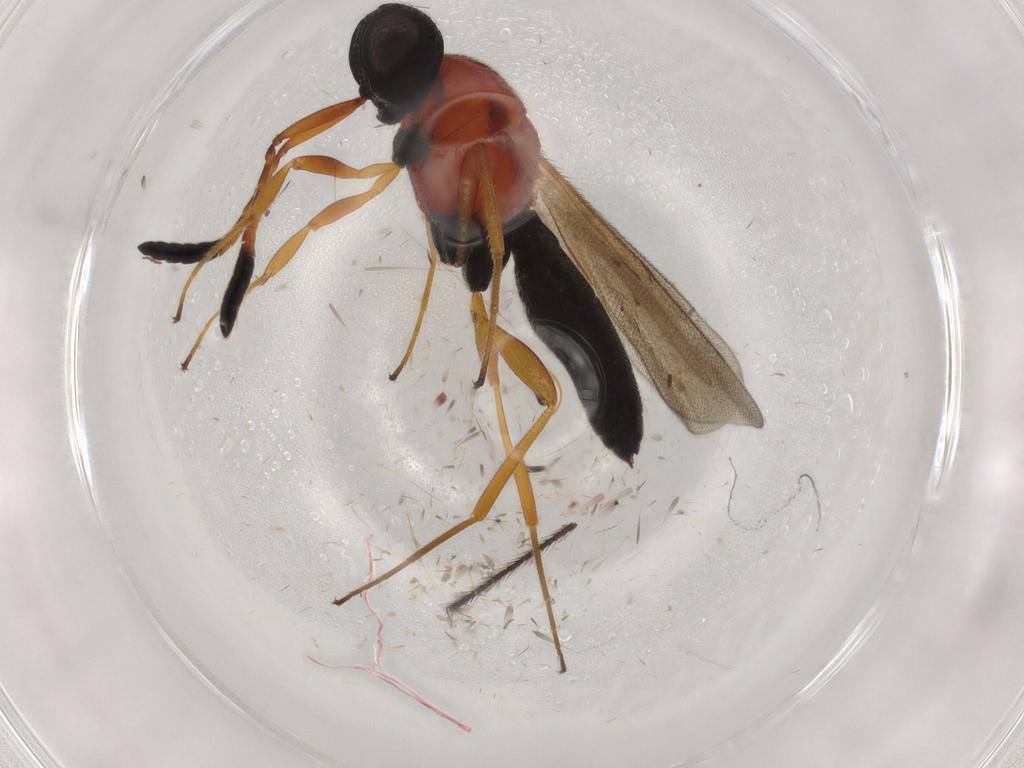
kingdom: Animalia
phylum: Arthropoda
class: Insecta
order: Hymenoptera
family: Scelionidae
